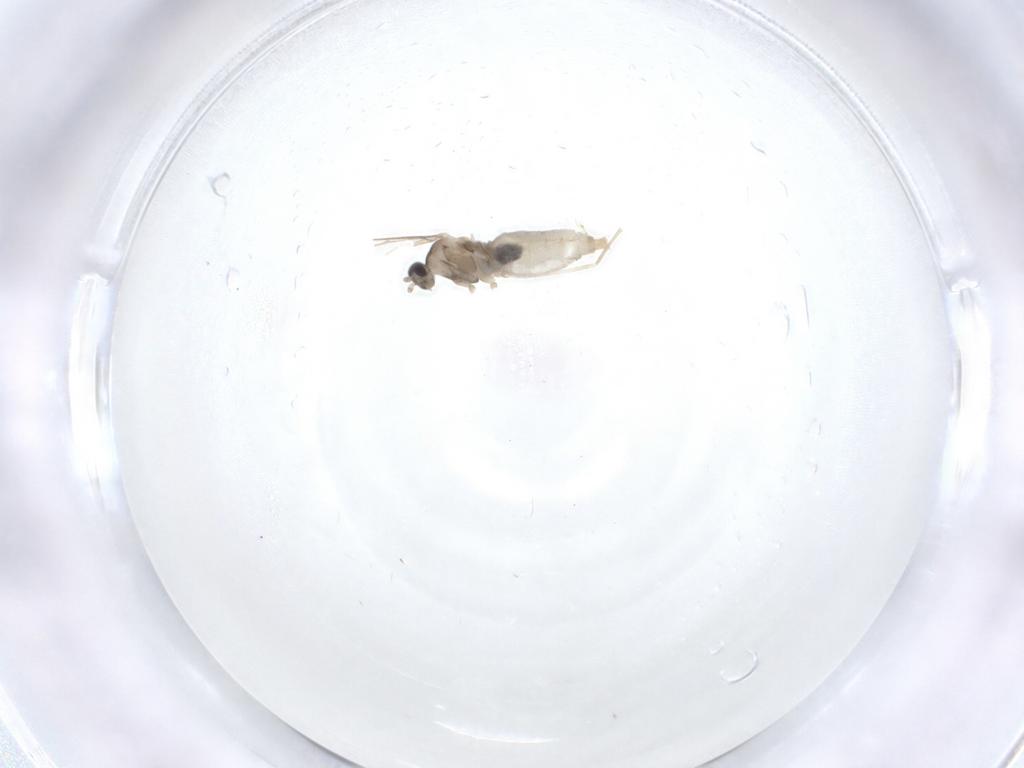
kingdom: Animalia
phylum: Arthropoda
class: Insecta
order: Diptera
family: Cecidomyiidae
